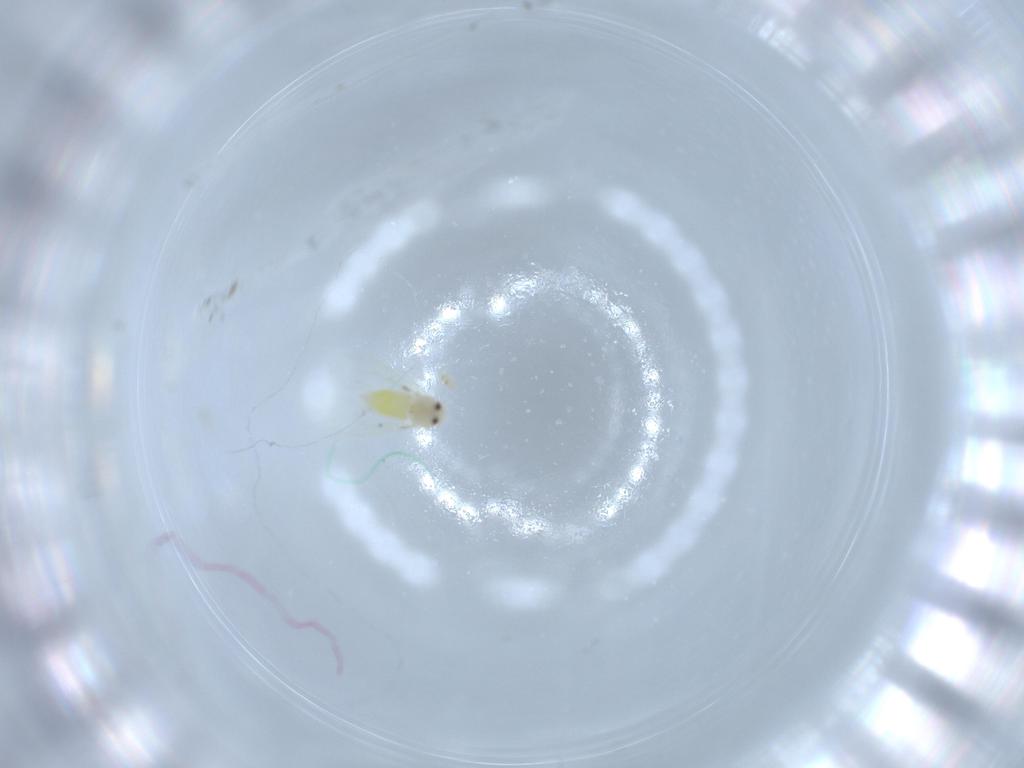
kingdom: Animalia
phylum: Arthropoda
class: Insecta
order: Hemiptera
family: Aleyrodidae
